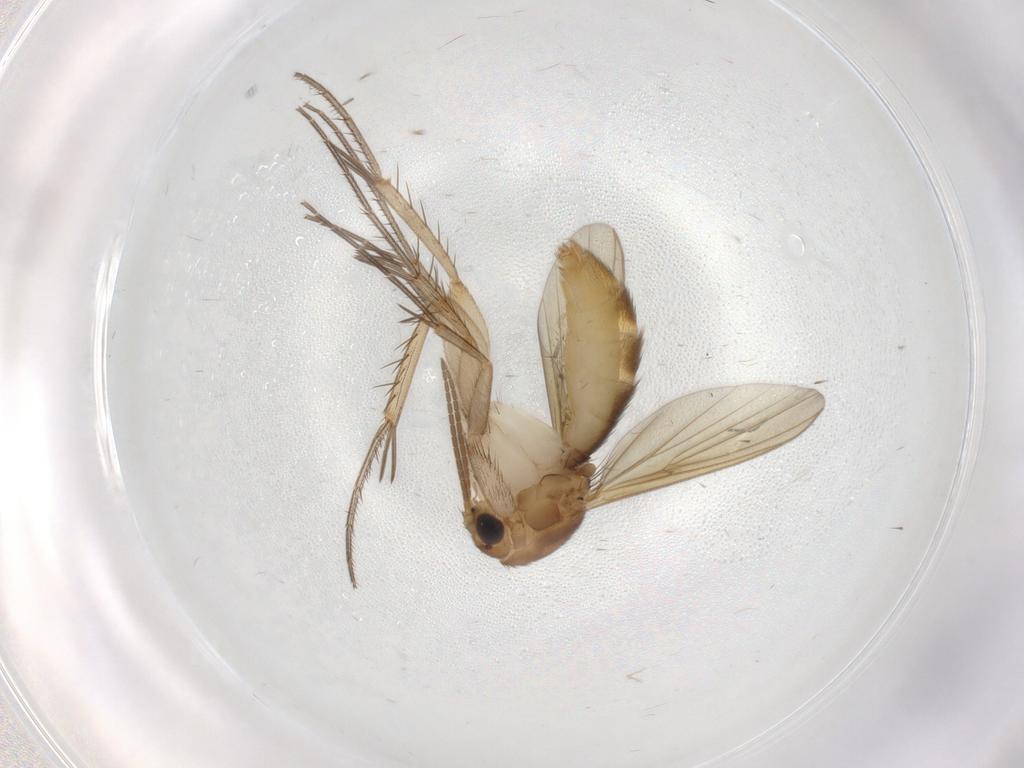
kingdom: Animalia
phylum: Arthropoda
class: Insecta
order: Diptera
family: Mycetophilidae
